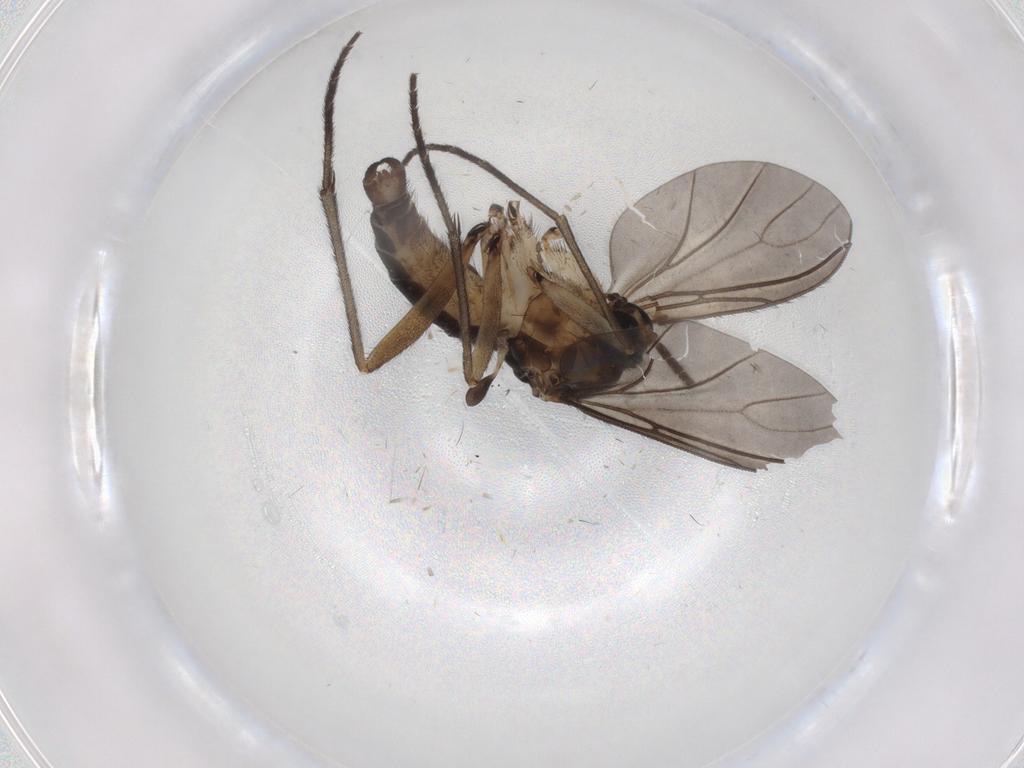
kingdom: Animalia
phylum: Arthropoda
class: Insecta
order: Diptera
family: Sciaridae
